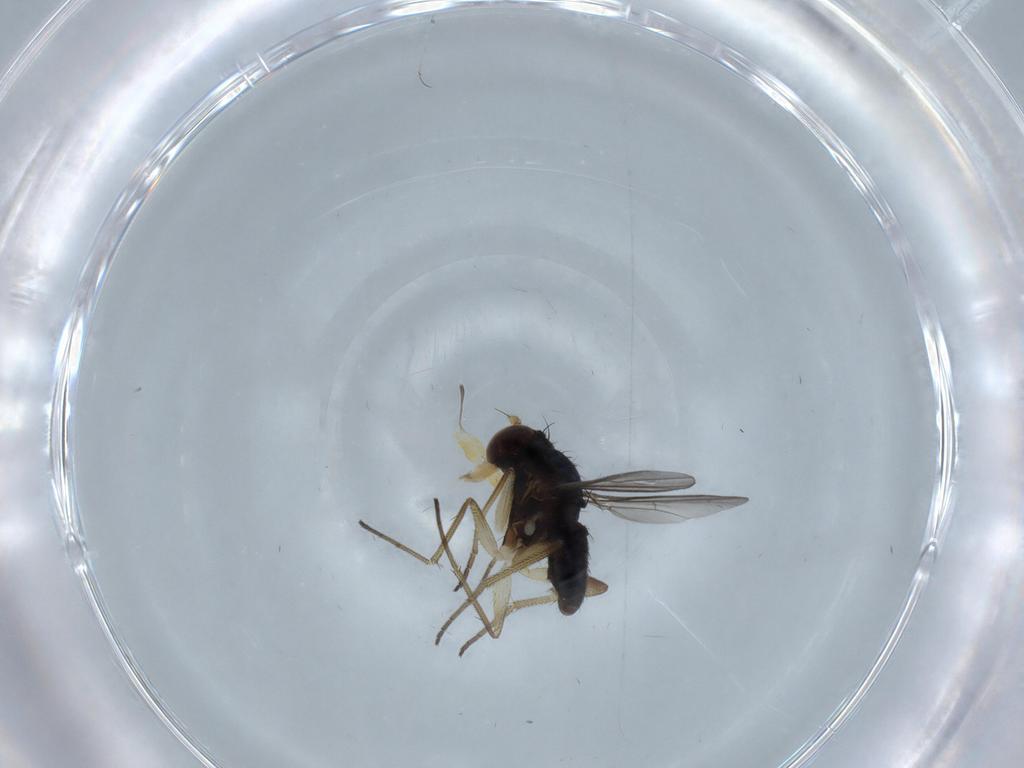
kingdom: Animalia
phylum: Arthropoda
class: Insecta
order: Diptera
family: Dolichopodidae
